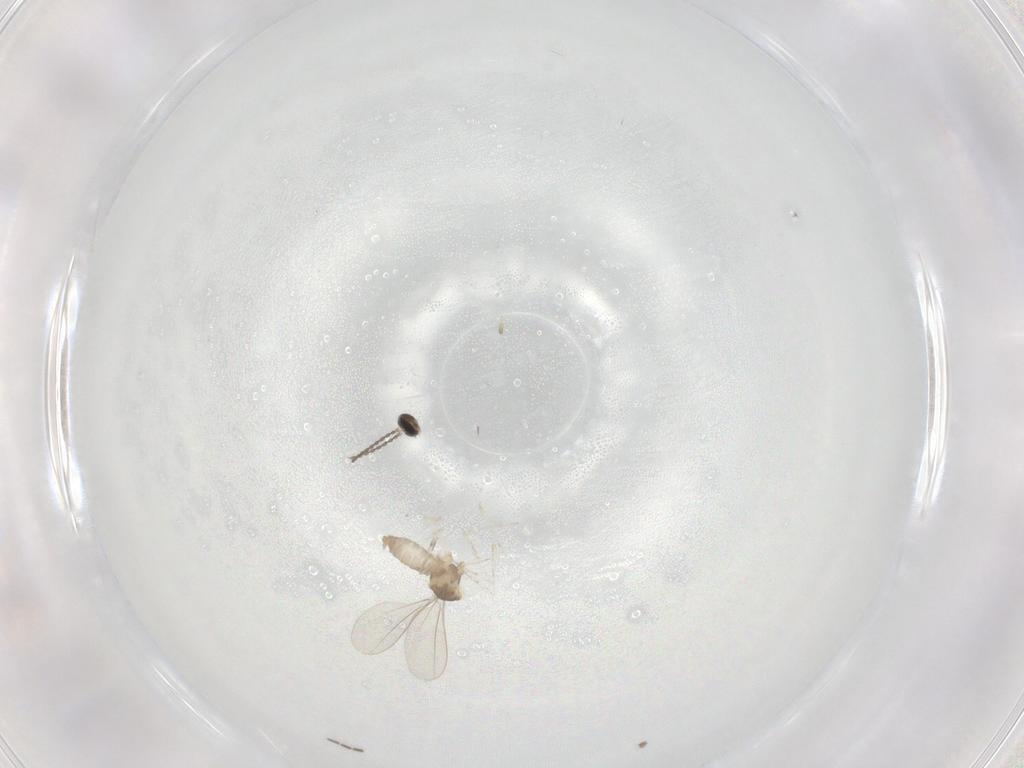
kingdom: Animalia
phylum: Arthropoda
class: Insecta
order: Diptera
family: Cecidomyiidae
